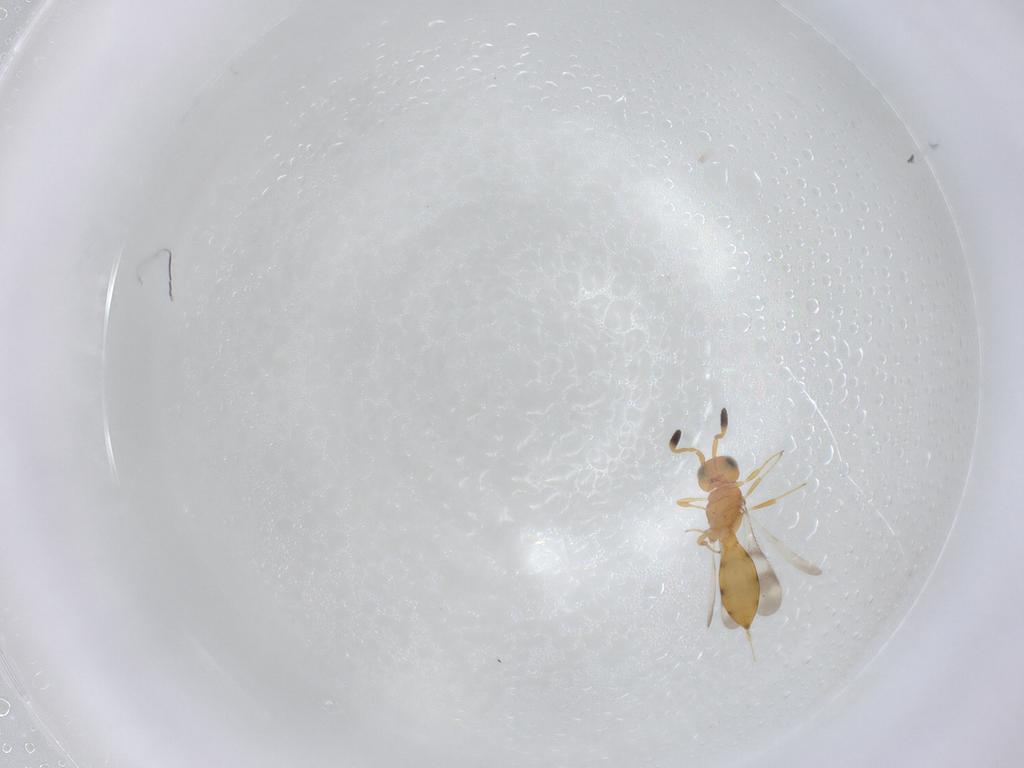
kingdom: Animalia
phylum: Arthropoda
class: Insecta
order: Hymenoptera
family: Scelionidae
